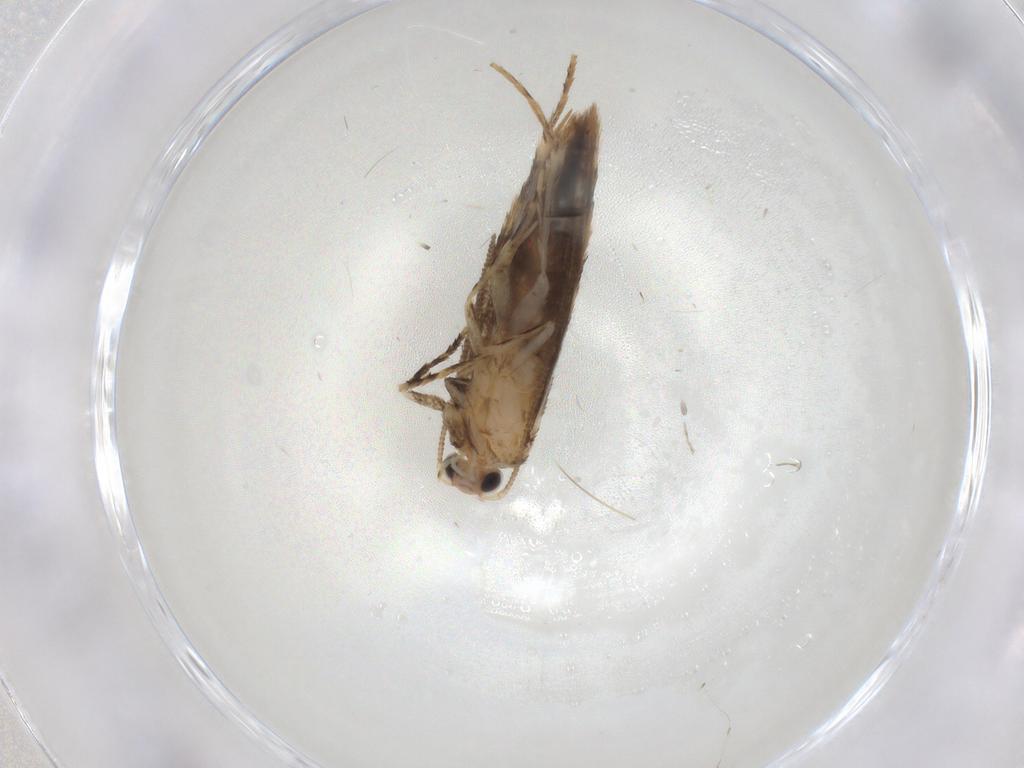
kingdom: Animalia
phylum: Arthropoda
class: Insecta
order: Lepidoptera
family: Tineidae
